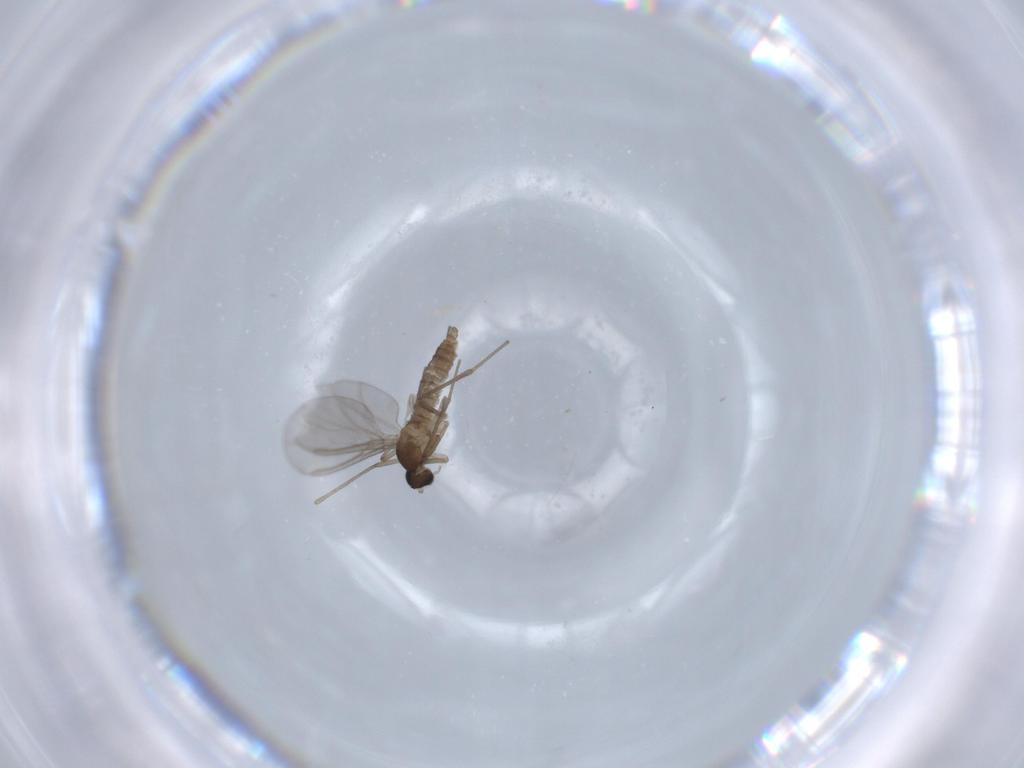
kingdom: Animalia
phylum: Arthropoda
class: Insecta
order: Diptera
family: Cecidomyiidae
